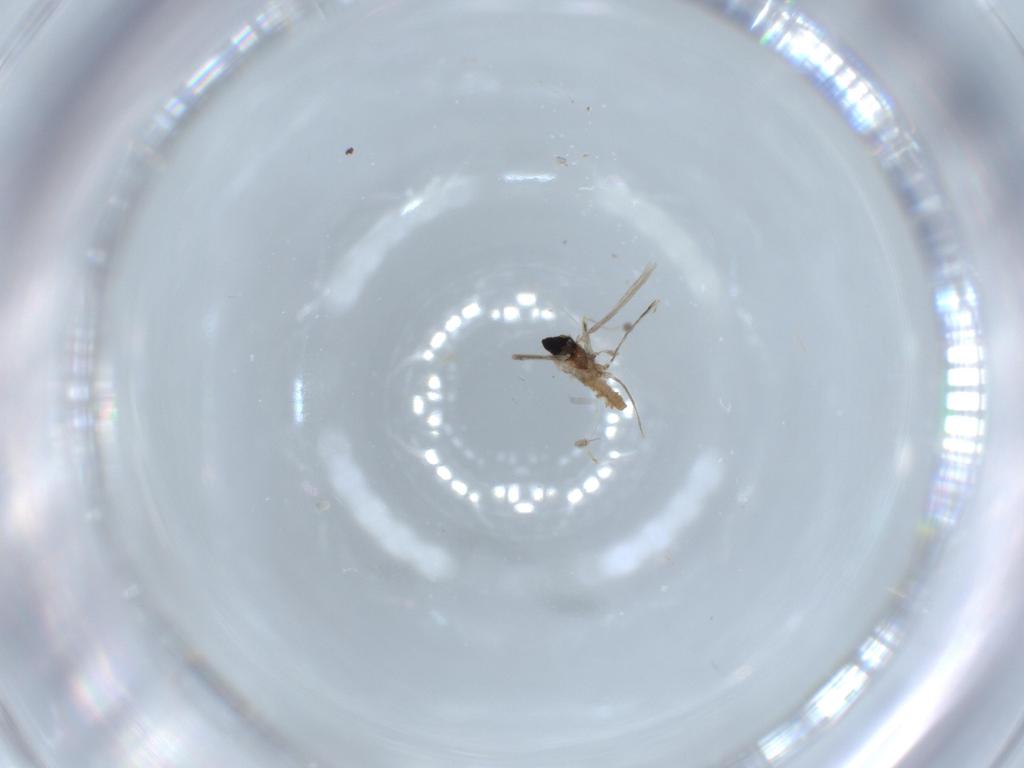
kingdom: Animalia
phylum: Arthropoda
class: Insecta
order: Diptera
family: Cecidomyiidae
